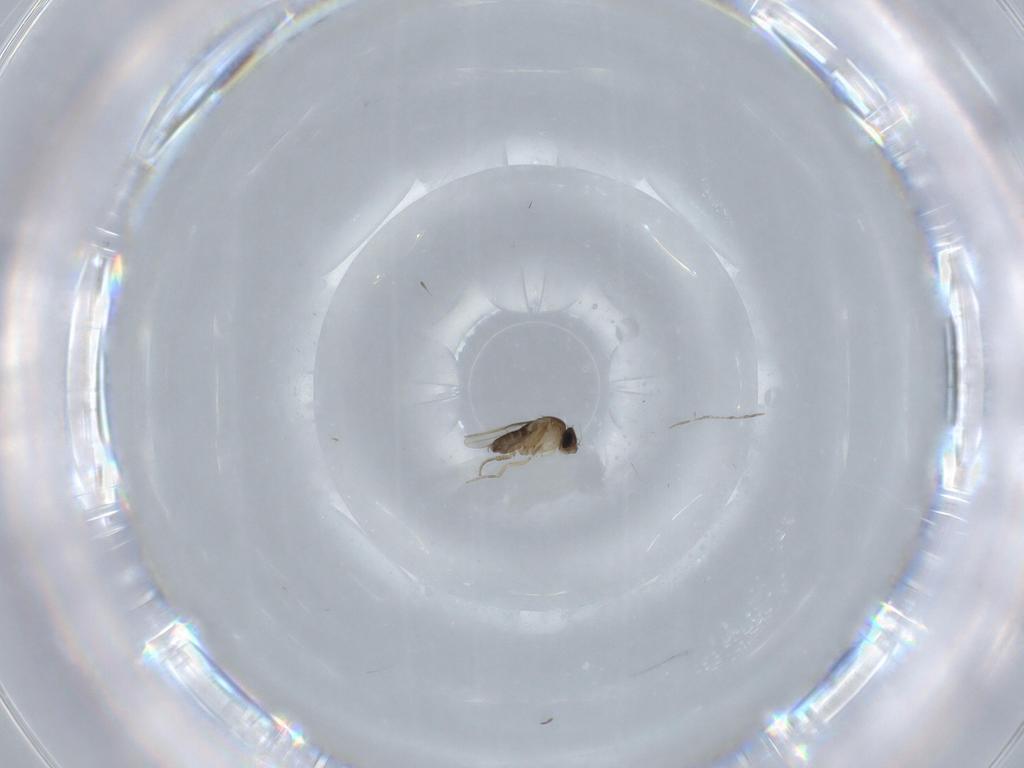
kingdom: Animalia
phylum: Arthropoda
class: Insecta
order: Diptera
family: Phoridae
